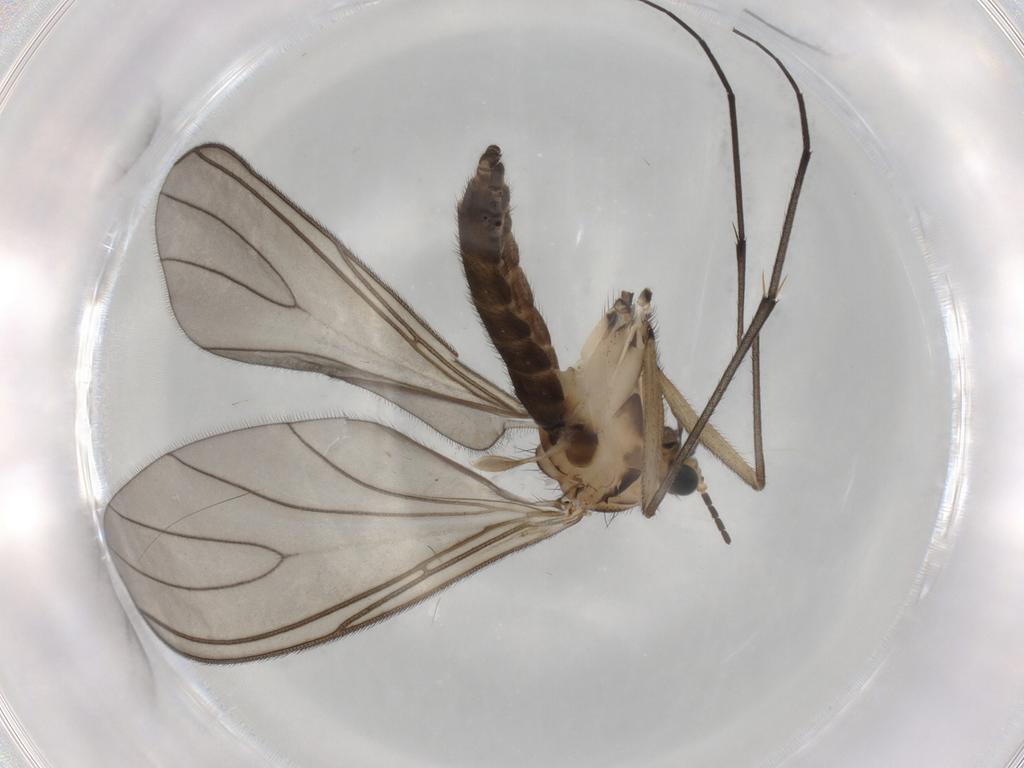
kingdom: Animalia
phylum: Arthropoda
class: Insecta
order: Diptera
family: Sciaridae
